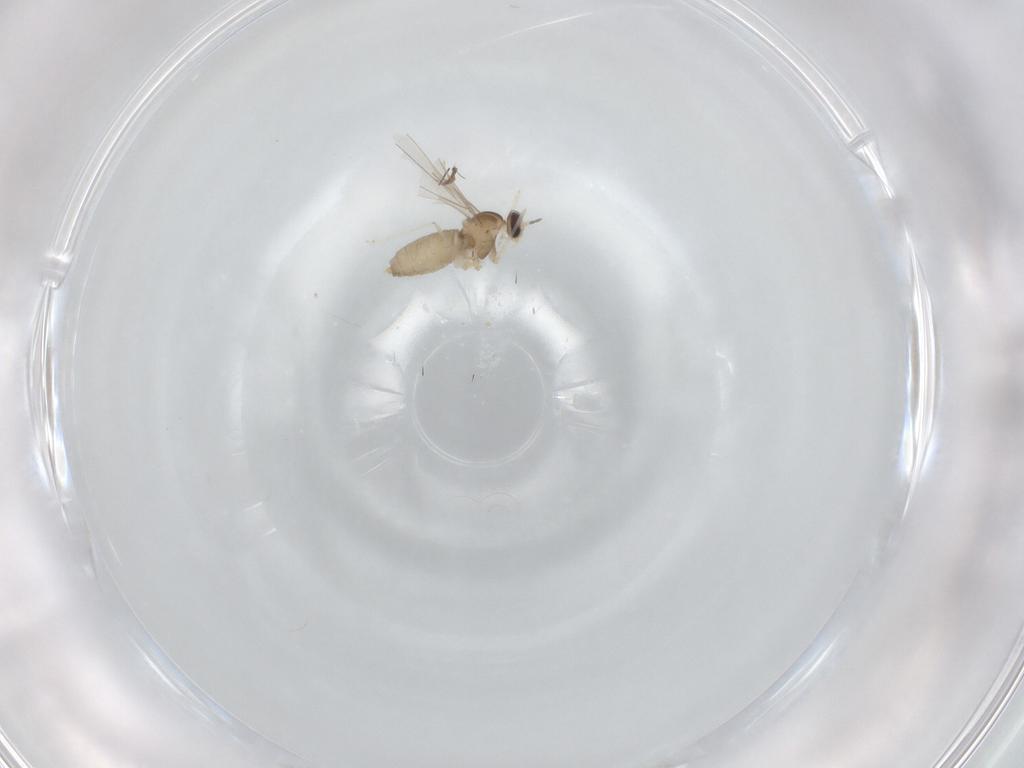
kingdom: Animalia
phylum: Arthropoda
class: Insecta
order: Diptera
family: Cecidomyiidae
